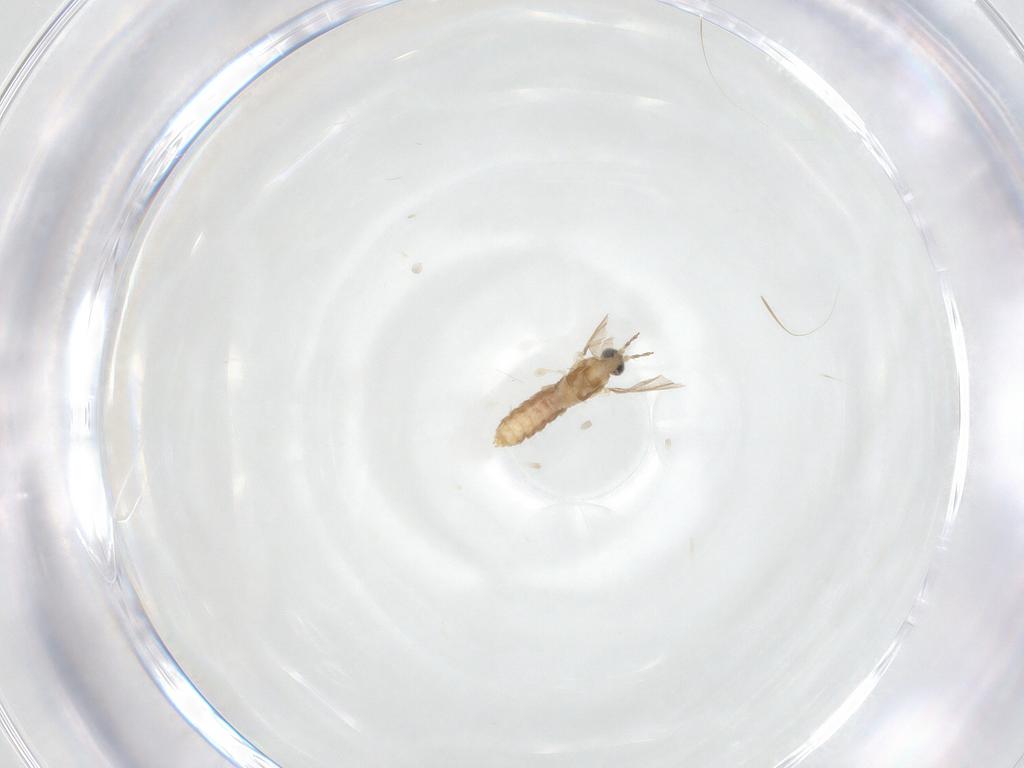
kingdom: Animalia
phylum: Arthropoda
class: Insecta
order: Diptera
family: Cecidomyiidae
